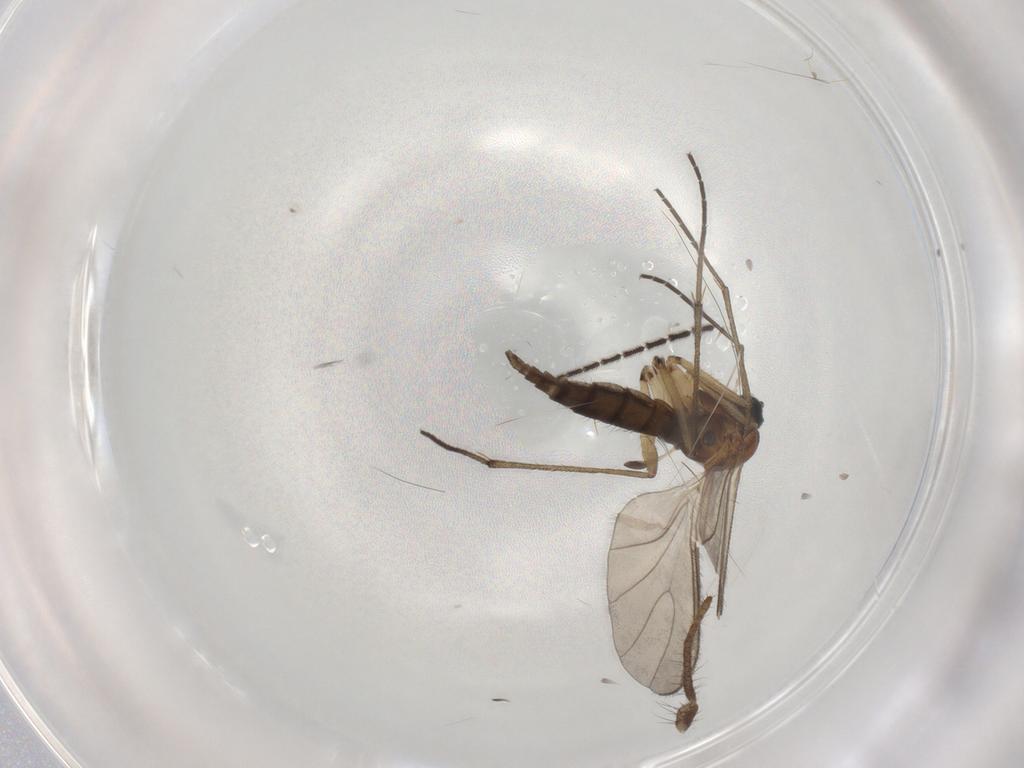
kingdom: Animalia
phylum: Arthropoda
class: Insecta
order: Diptera
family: Sciaridae
